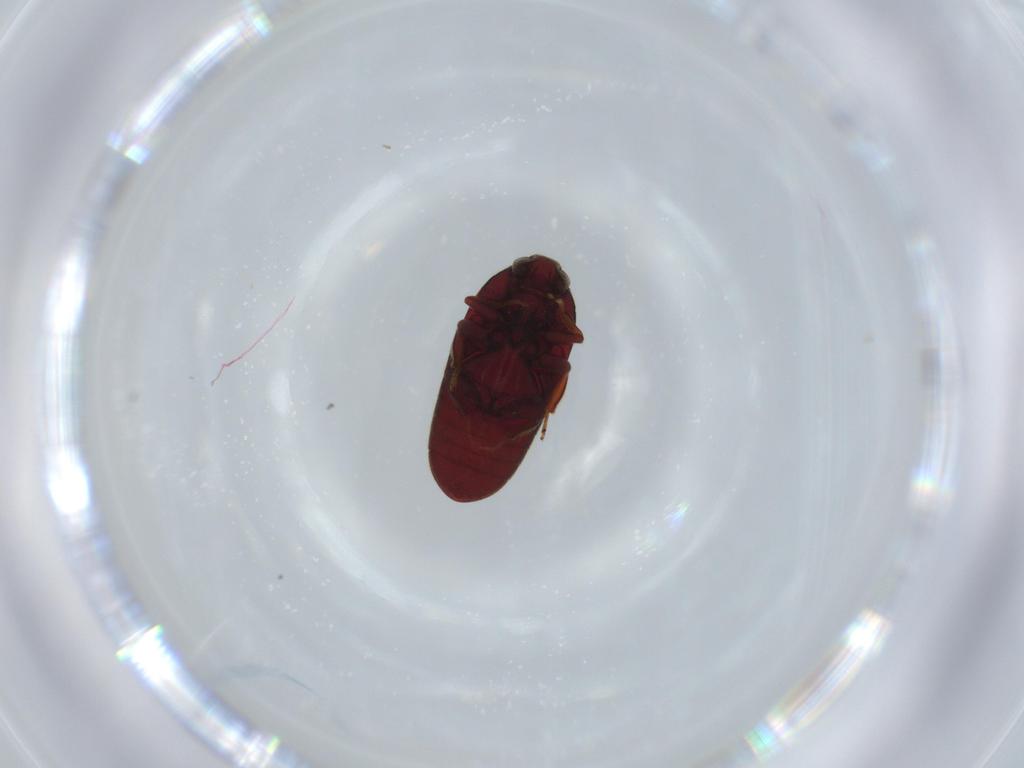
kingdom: Animalia
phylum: Arthropoda
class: Insecta
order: Coleoptera
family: Throscidae
